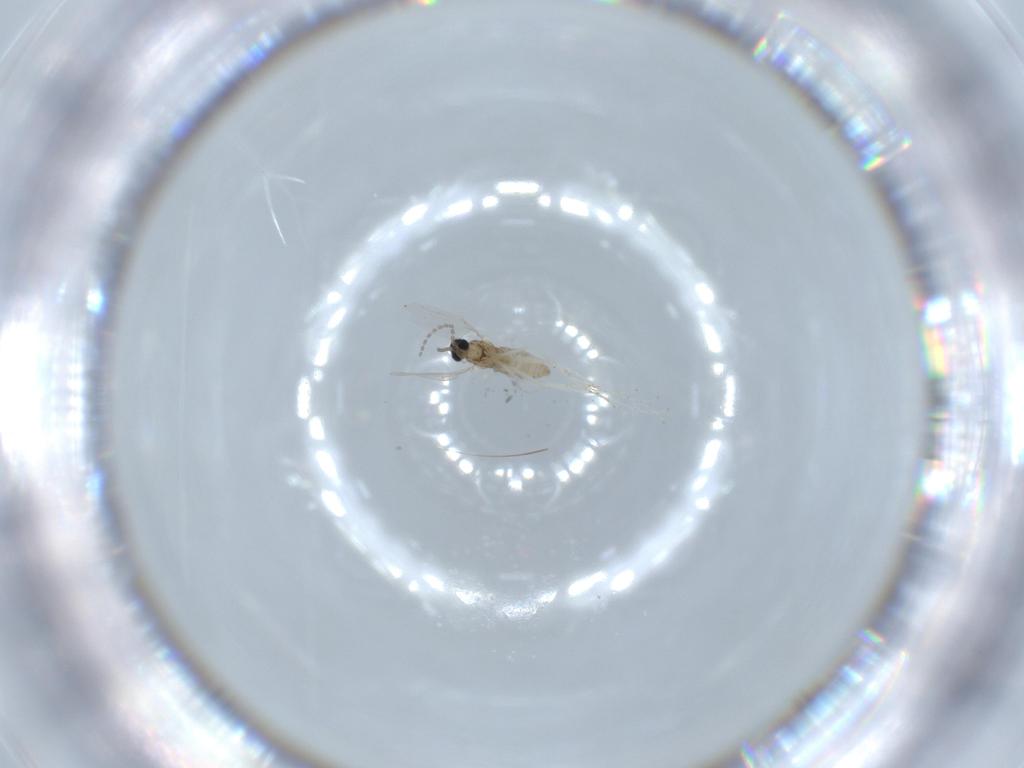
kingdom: Animalia
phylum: Arthropoda
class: Insecta
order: Diptera
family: Cecidomyiidae
